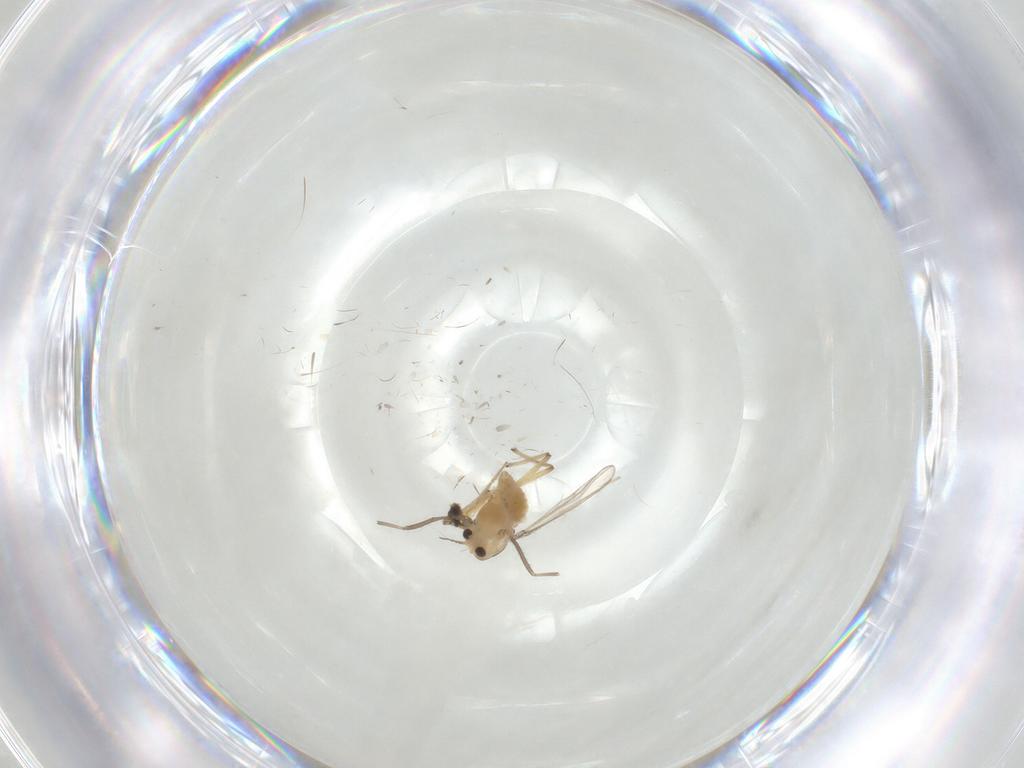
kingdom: Animalia
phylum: Arthropoda
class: Insecta
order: Diptera
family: Chironomidae
